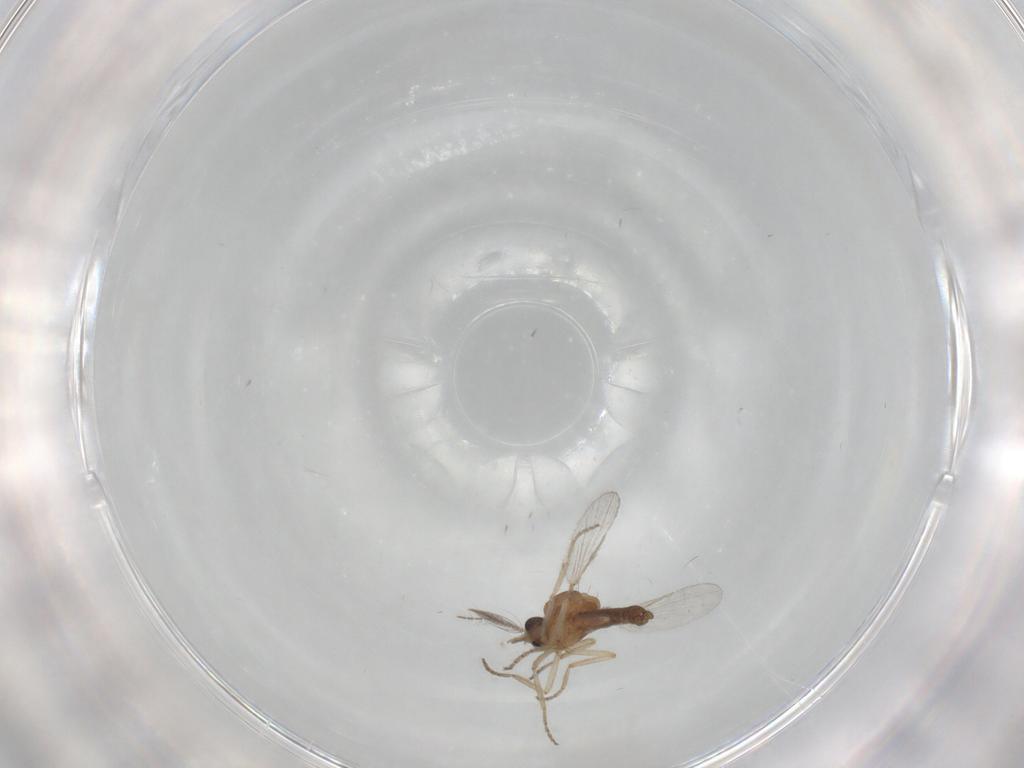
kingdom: Animalia
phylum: Arthropoda
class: Insecta
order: Diptera
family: Ceratopogonidae
